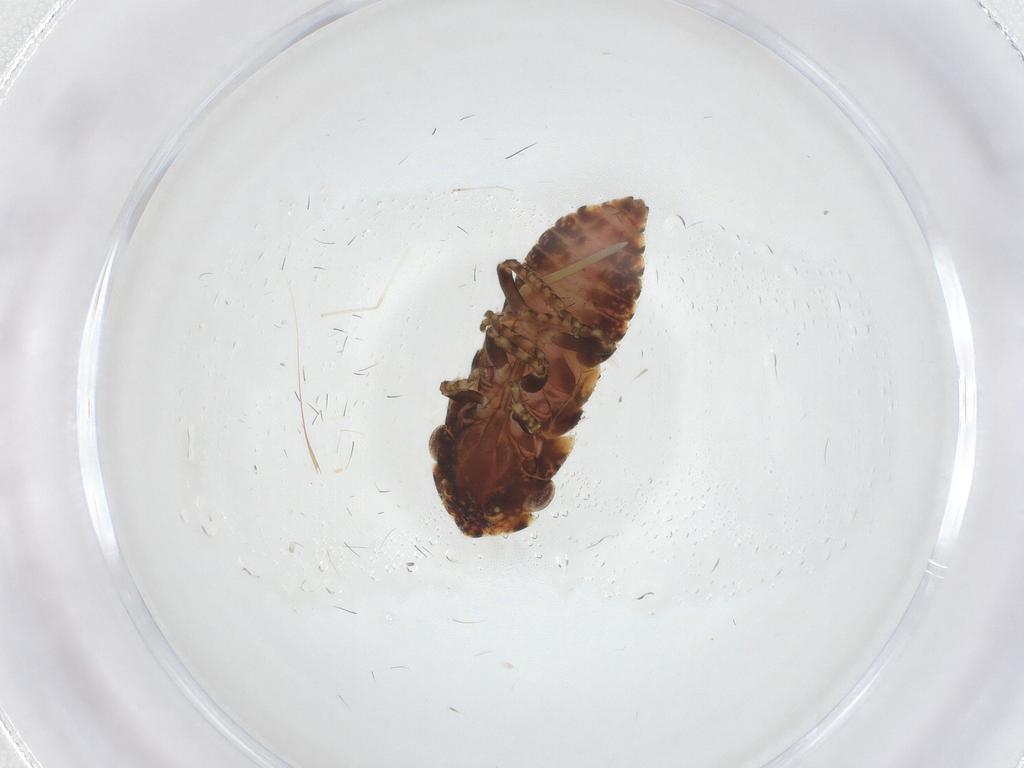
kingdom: Animalia
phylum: Arthropoda
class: Insecta
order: Hemiptera
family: Cicadellidae
